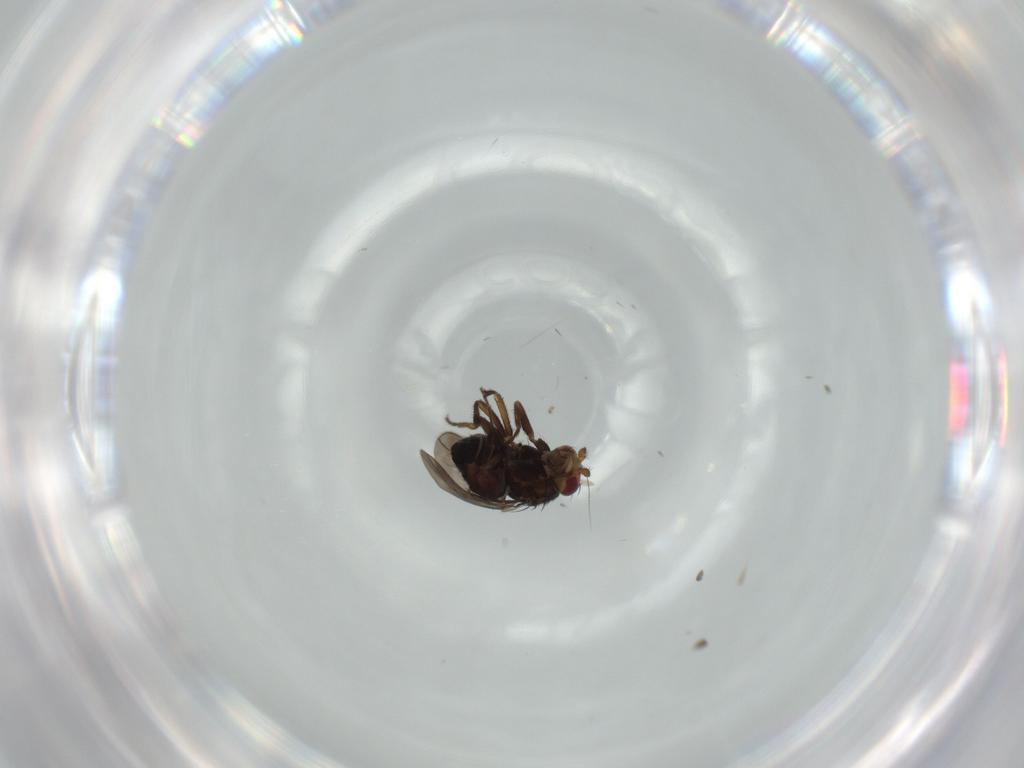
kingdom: Animalia
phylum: Arthropoda
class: Insecta
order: Diptera
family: Sphaeroceridae
